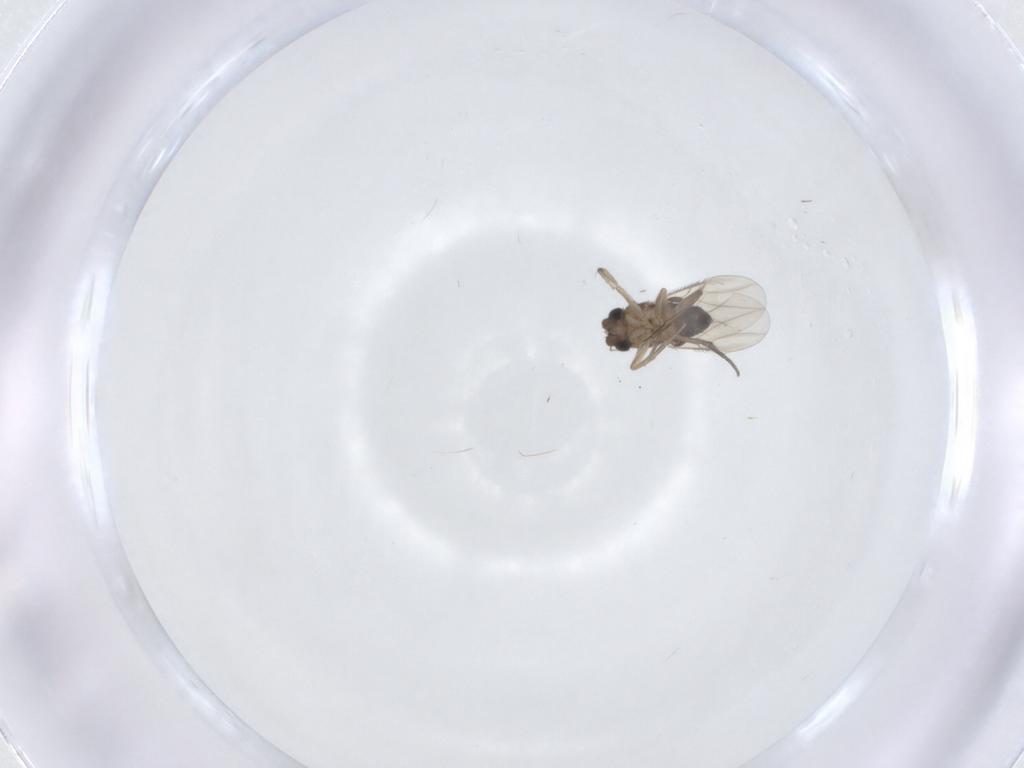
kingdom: Animalia
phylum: Arthropoda
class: Insecta
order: Diptera
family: Phoridae
